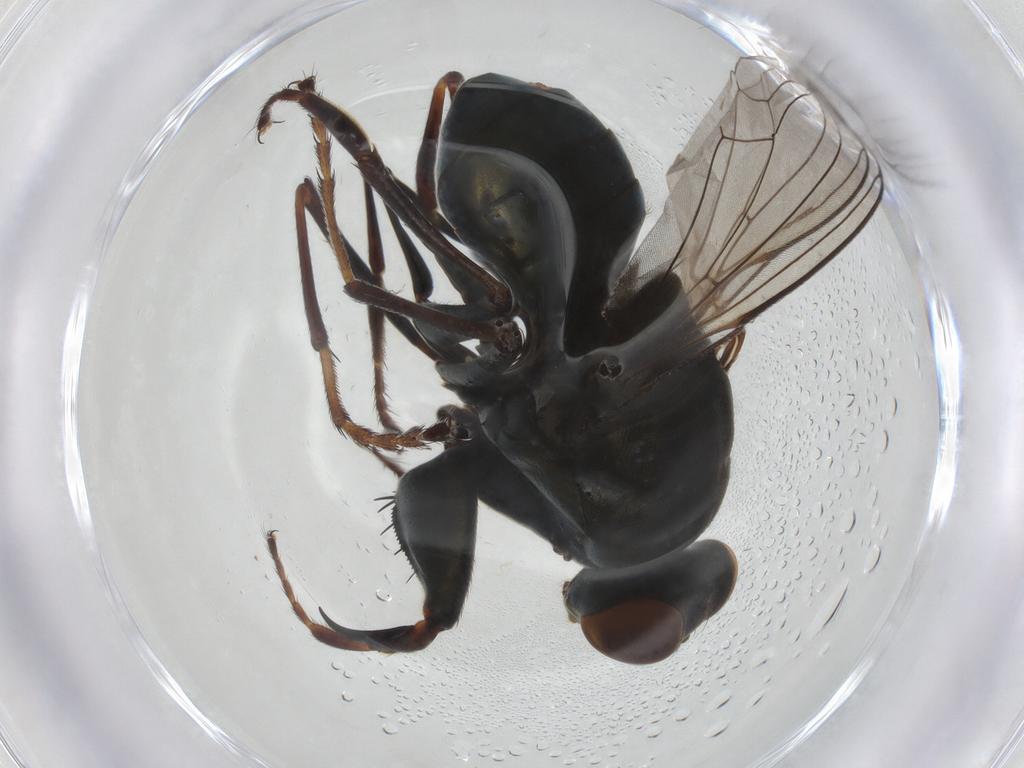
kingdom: Animalia
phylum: Arthropoda
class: Insecta
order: Diptera
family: Ephydridae
